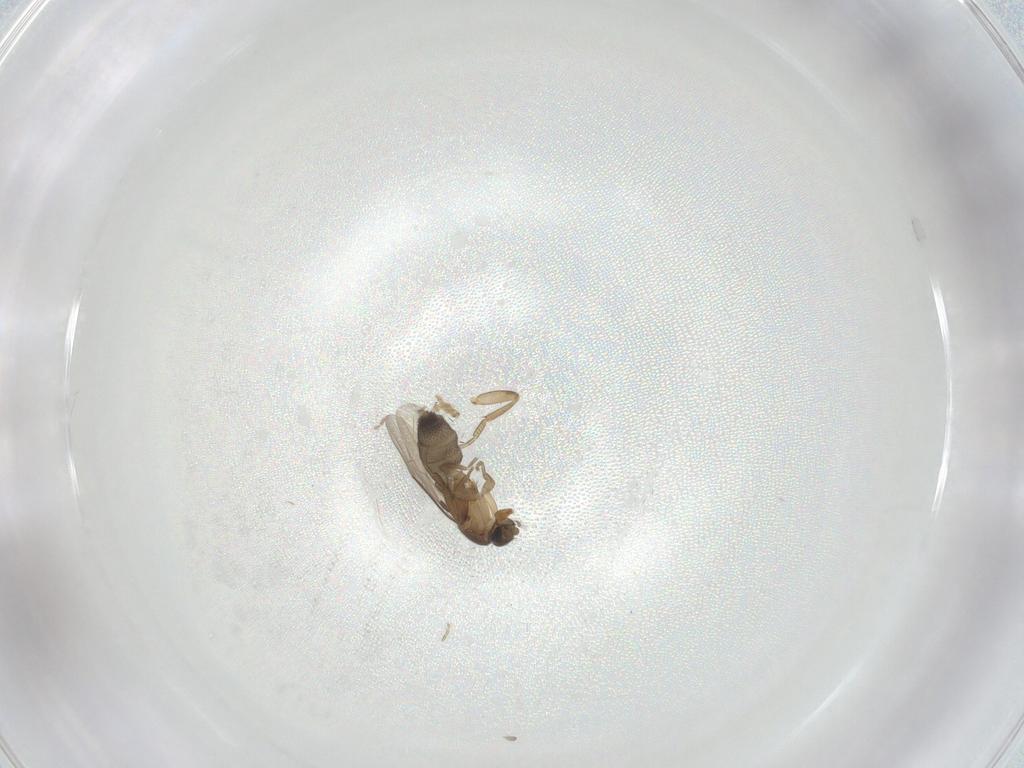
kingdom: Animalia
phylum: Arthropoda
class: Insecta
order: Diptera
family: Phoridae
